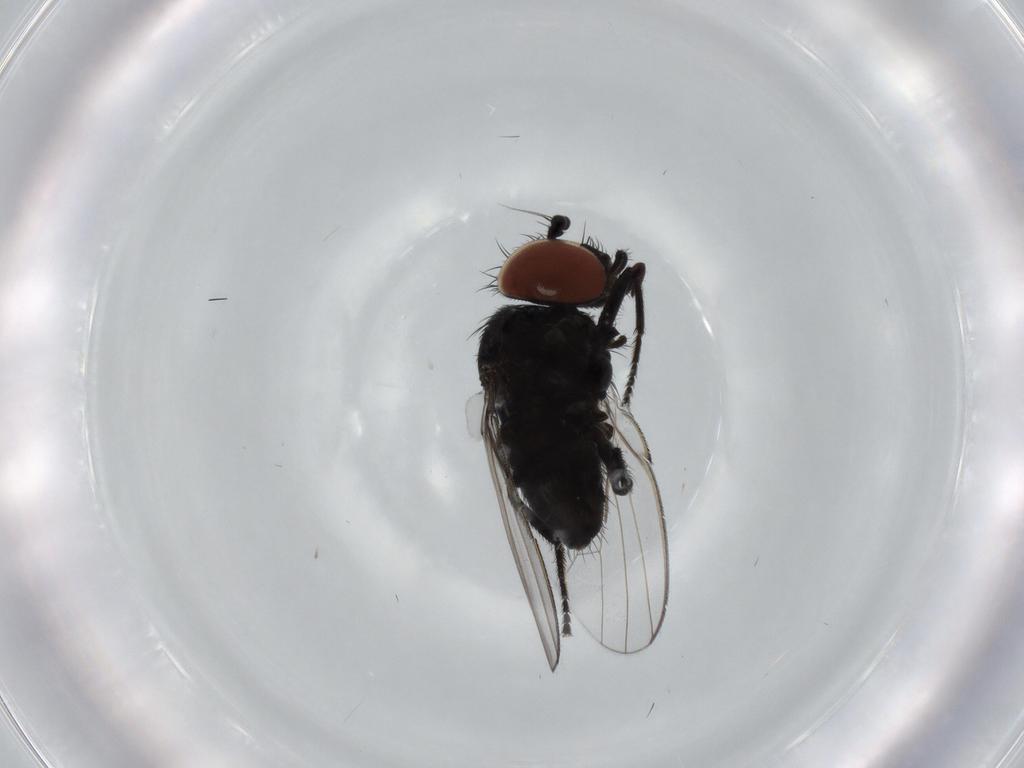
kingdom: Animalia
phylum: Arthropoda
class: Insecta
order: Diptera
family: Milichiidae
